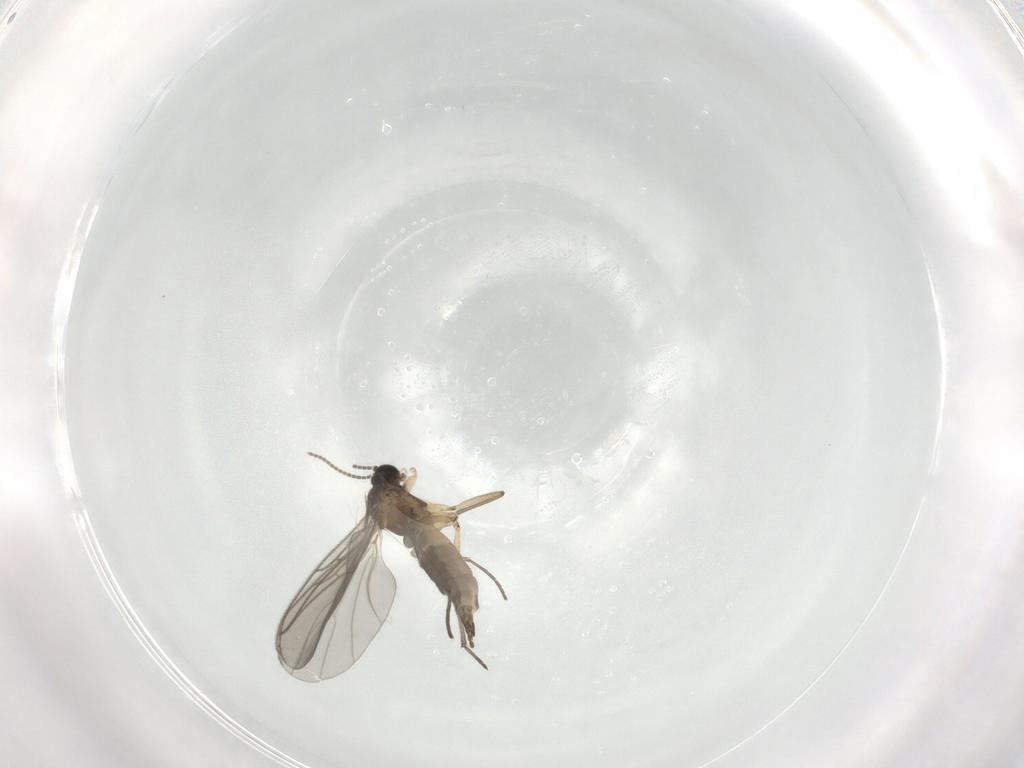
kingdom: Animalia
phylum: Arthropoda
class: Insecta
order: Diptera
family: Sciaridae
